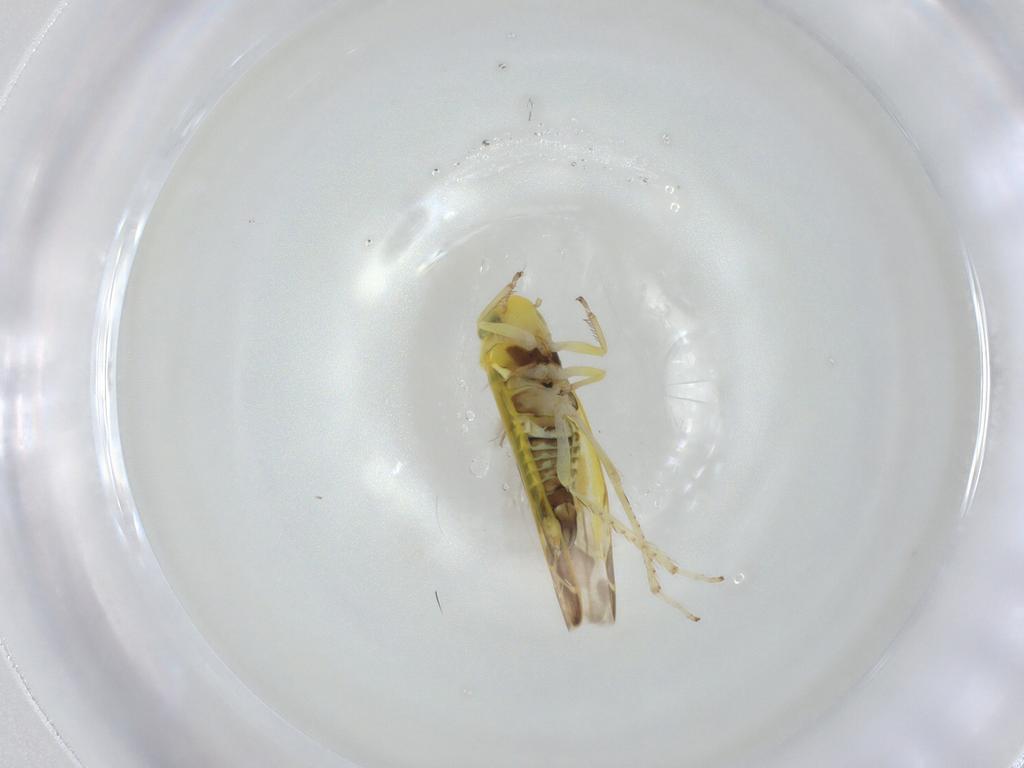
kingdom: Animalia
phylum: Arthropoda
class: Insecta
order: Hemiptera
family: Cicadellidae
